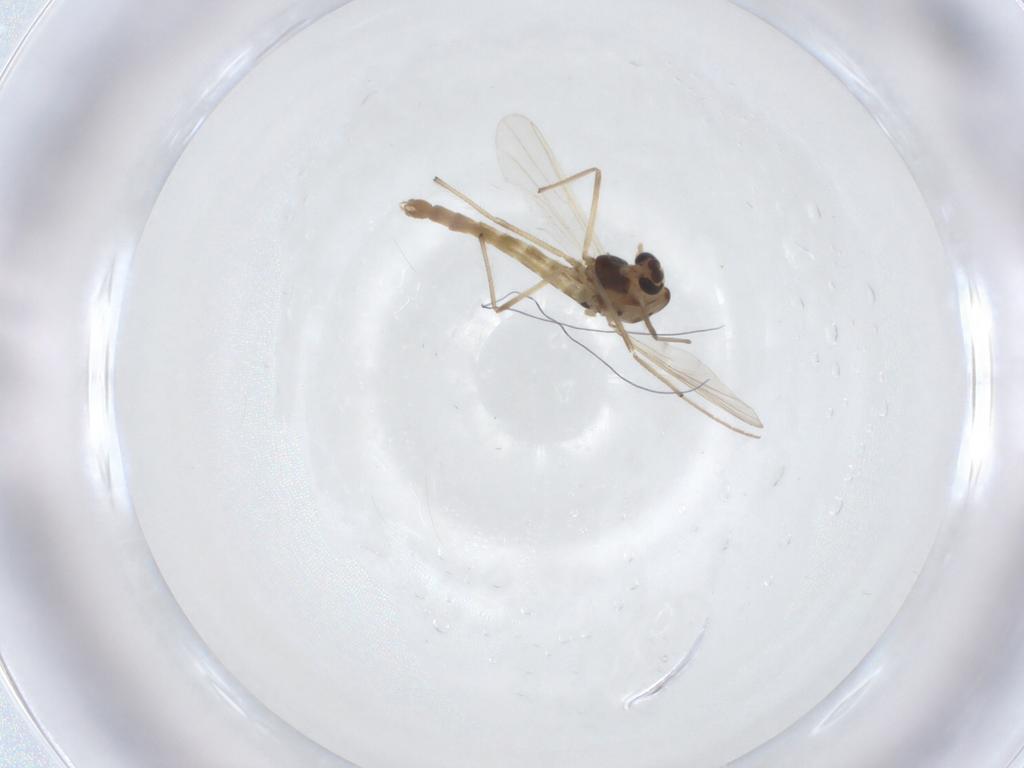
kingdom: Animalia
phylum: Arthropoda
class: Insecta
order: Diptera
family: Chironomidae
